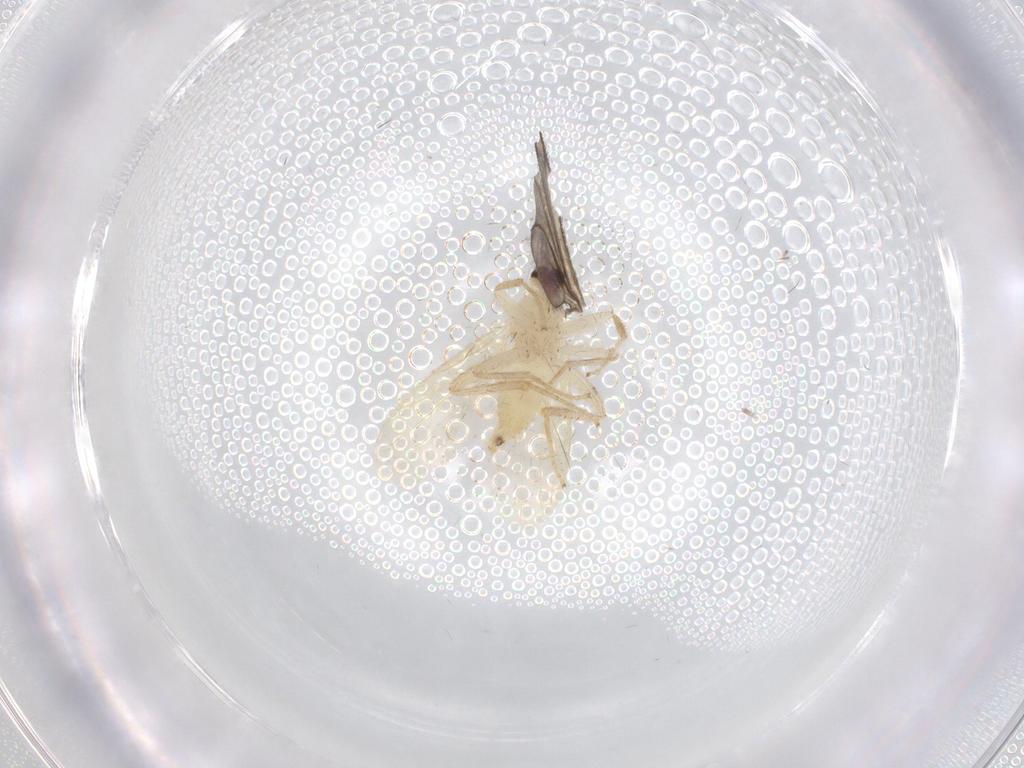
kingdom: Animalia
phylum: Arthropoda
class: Insecta
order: Diptera
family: Hybotidae
